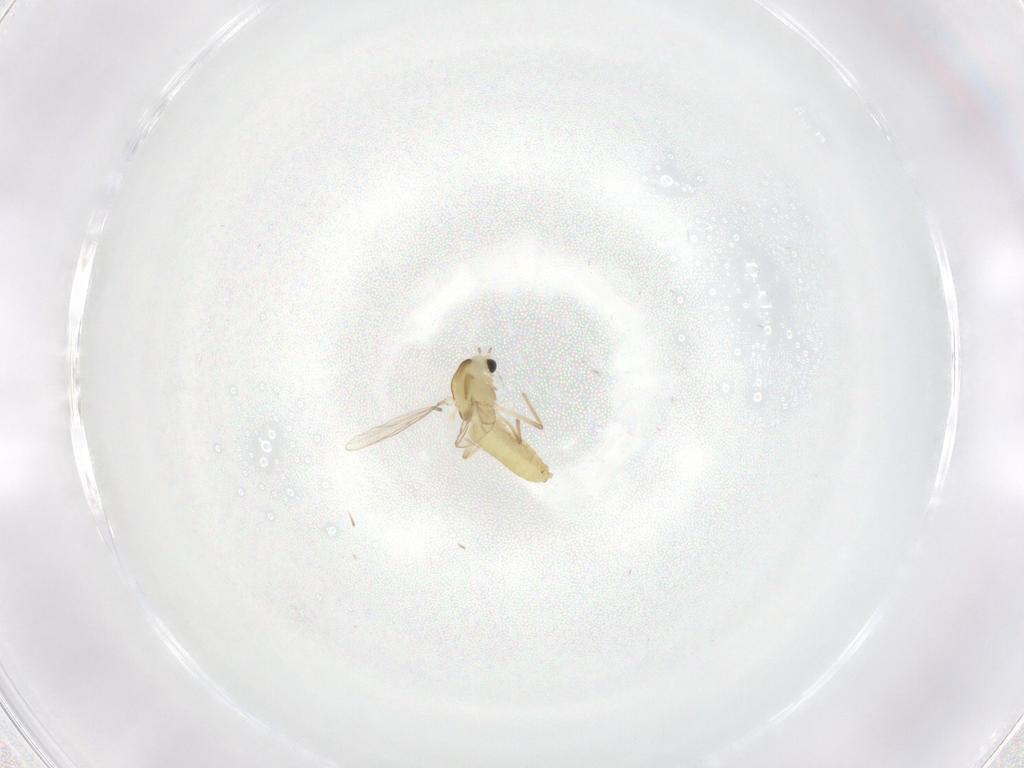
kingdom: Animalia
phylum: Arthropoda
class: Insecta
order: Diptera
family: Chironomidae
